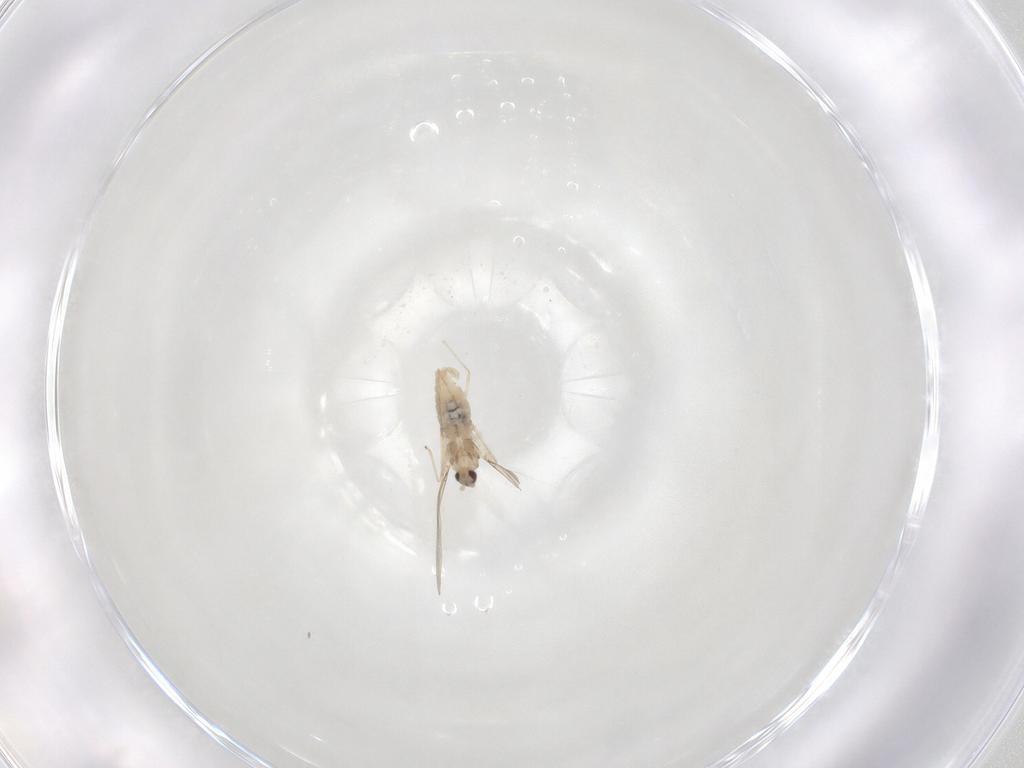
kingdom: Animalia
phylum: Arthropoda
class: Insecta
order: Diptera
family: Cecidomyiidae
